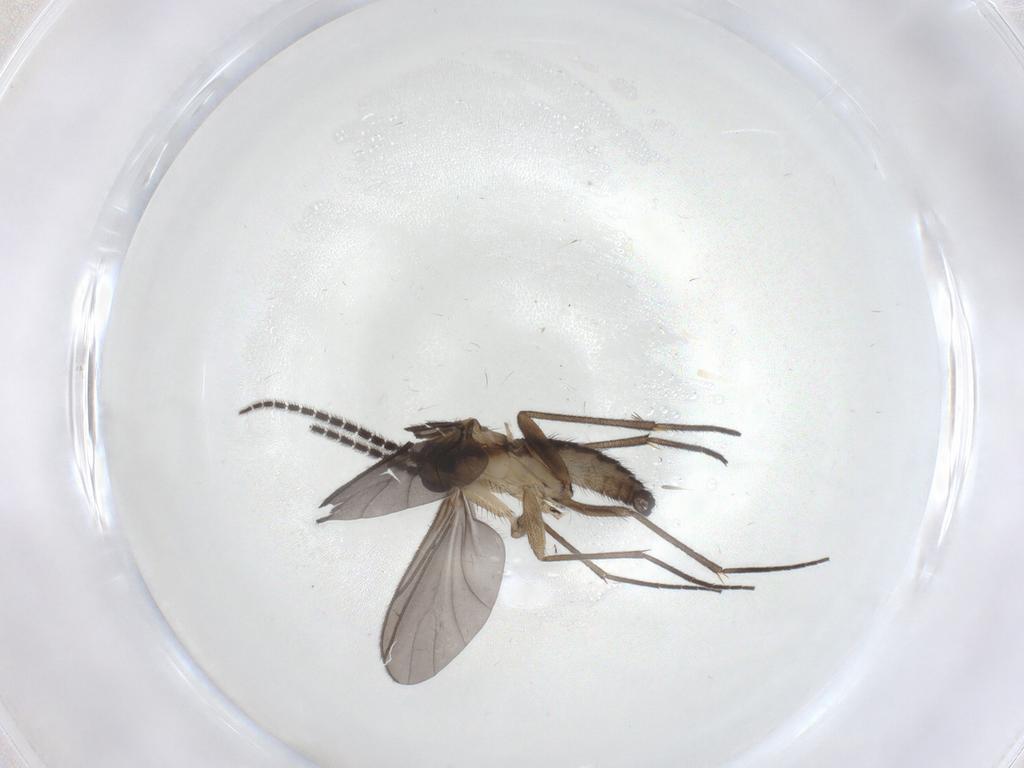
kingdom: Animalia
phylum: Arthropoda
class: Insecta
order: Diptera
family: Sciaridae
